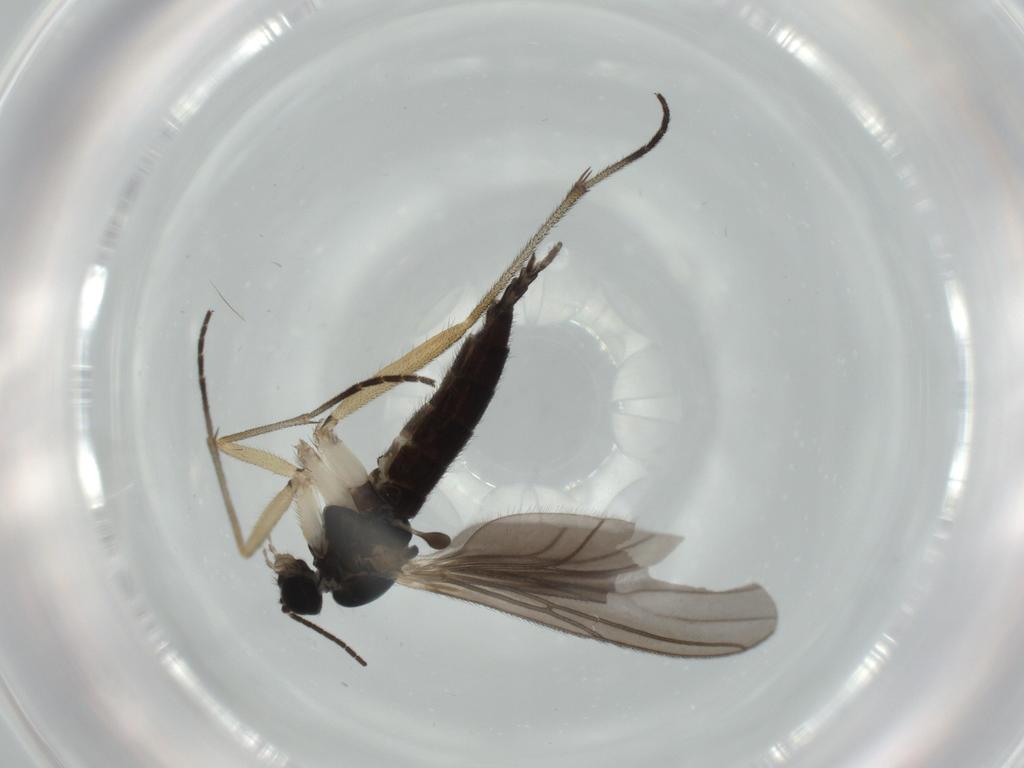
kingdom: Animalia
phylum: Arthropoda
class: Insecta
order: Diptera
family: Sciaridae
